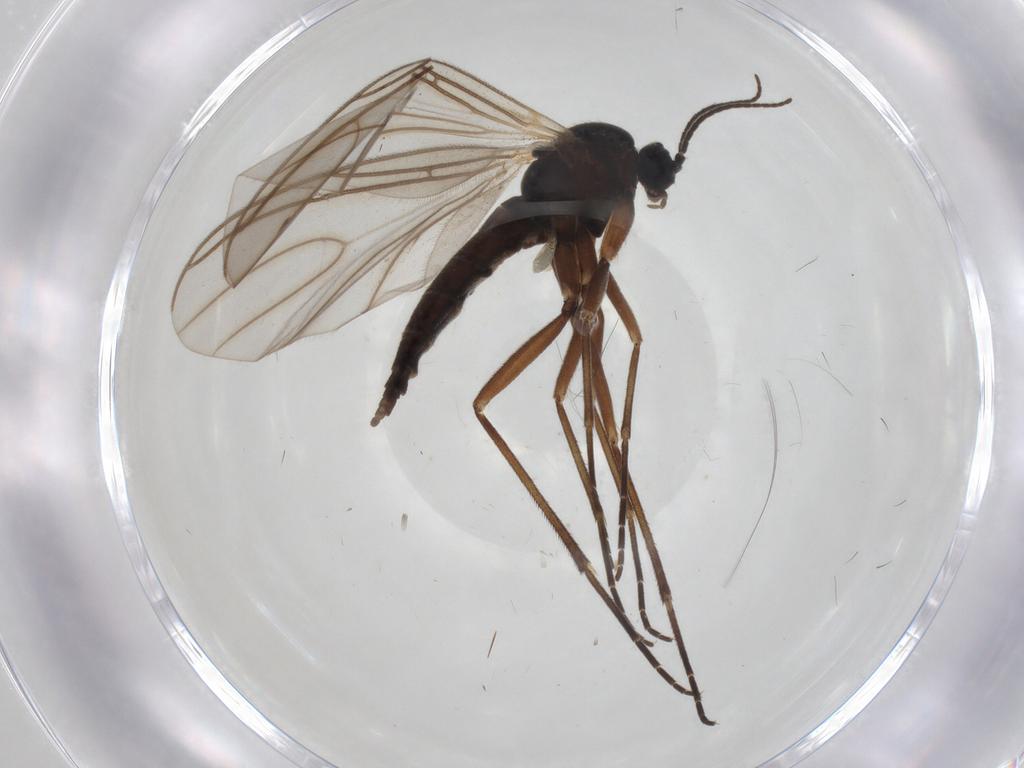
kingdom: Animalia
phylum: Arthropoda
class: Insecta
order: Diptera
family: Sciaridae
